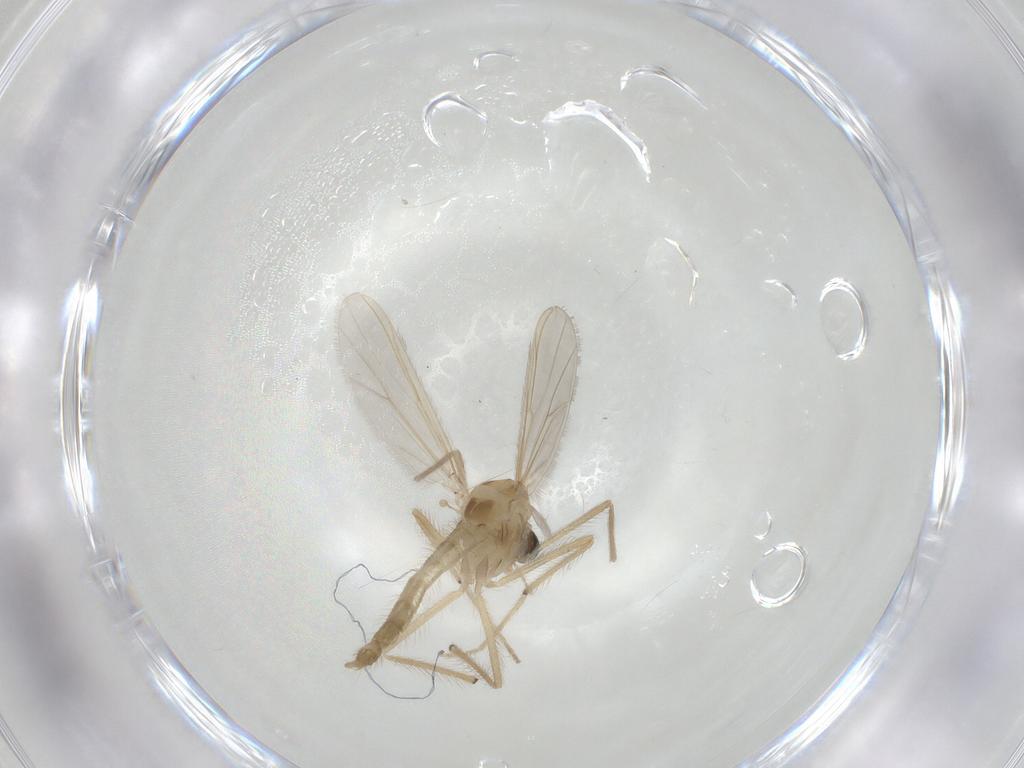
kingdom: Animalia
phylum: Arthropoda
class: Insecta
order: Diptera
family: Chironomidae
